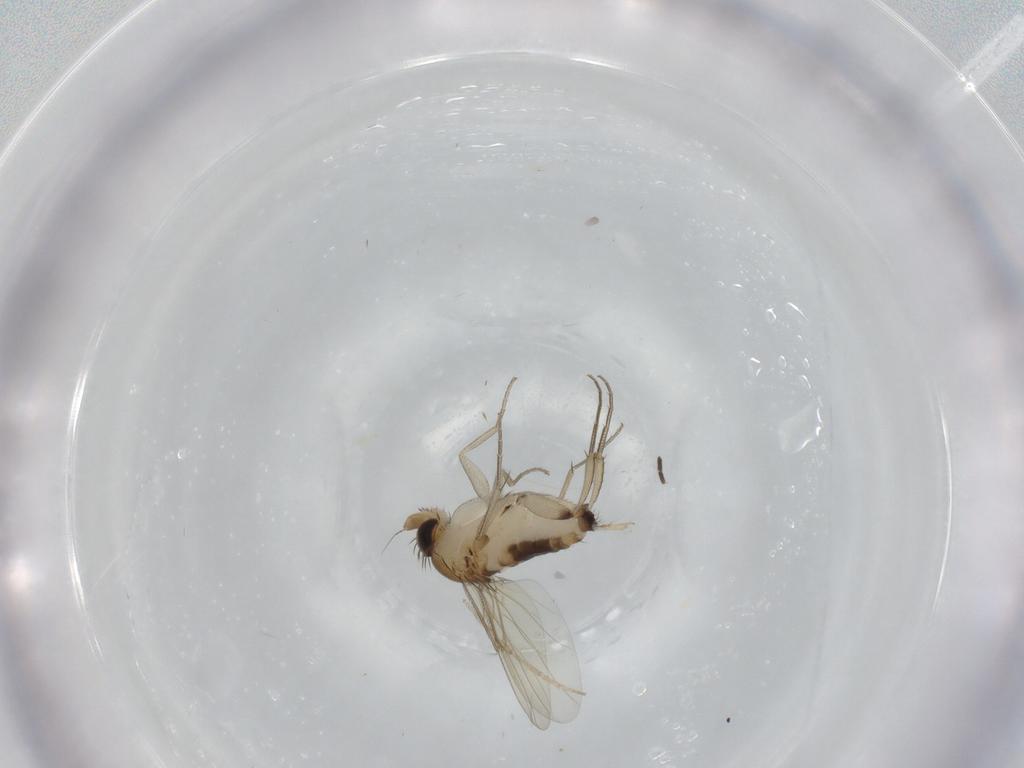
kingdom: Animalia
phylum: Arthropoda
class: Insecta
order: Diptera
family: Phoridae
